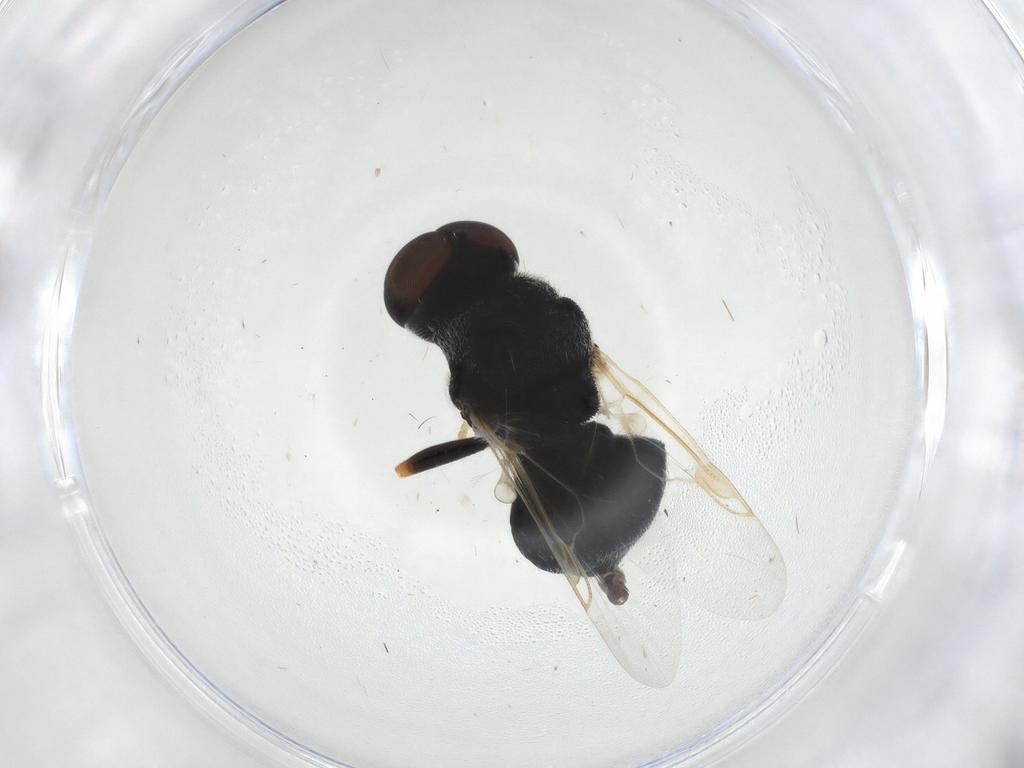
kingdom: Animalia
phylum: Arthropoda
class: Insecta
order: Diptera
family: Stratiomyidae
